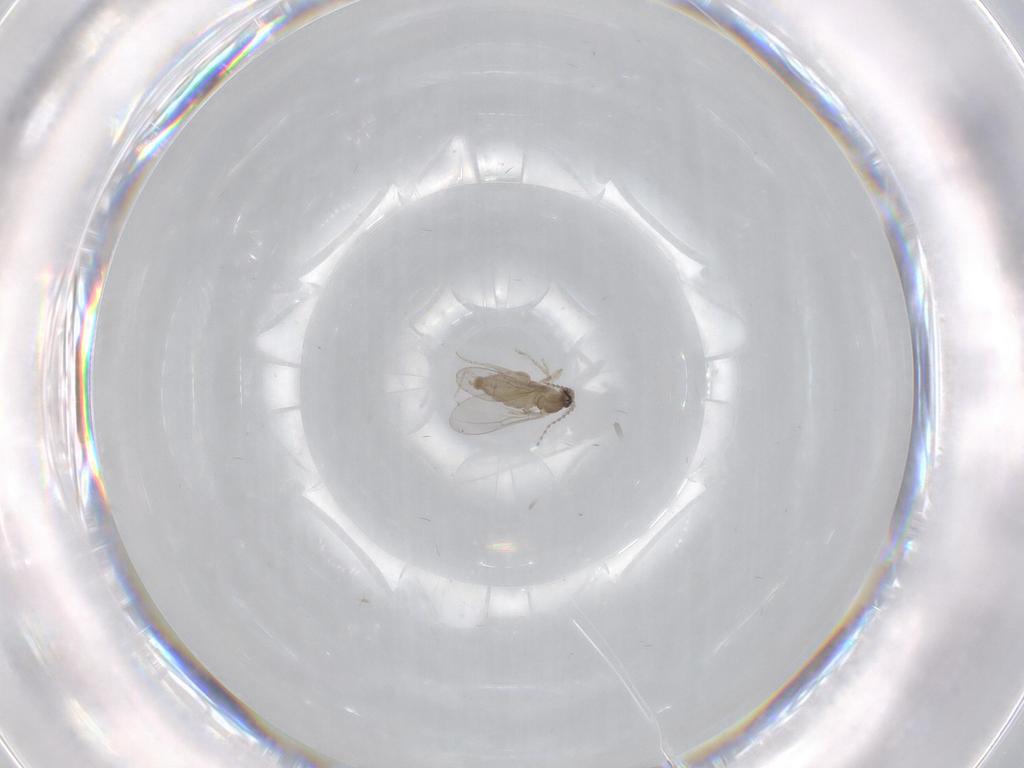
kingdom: Animalia
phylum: Arthropoda
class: Insecta
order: Diptera
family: Cecidomyiidae
